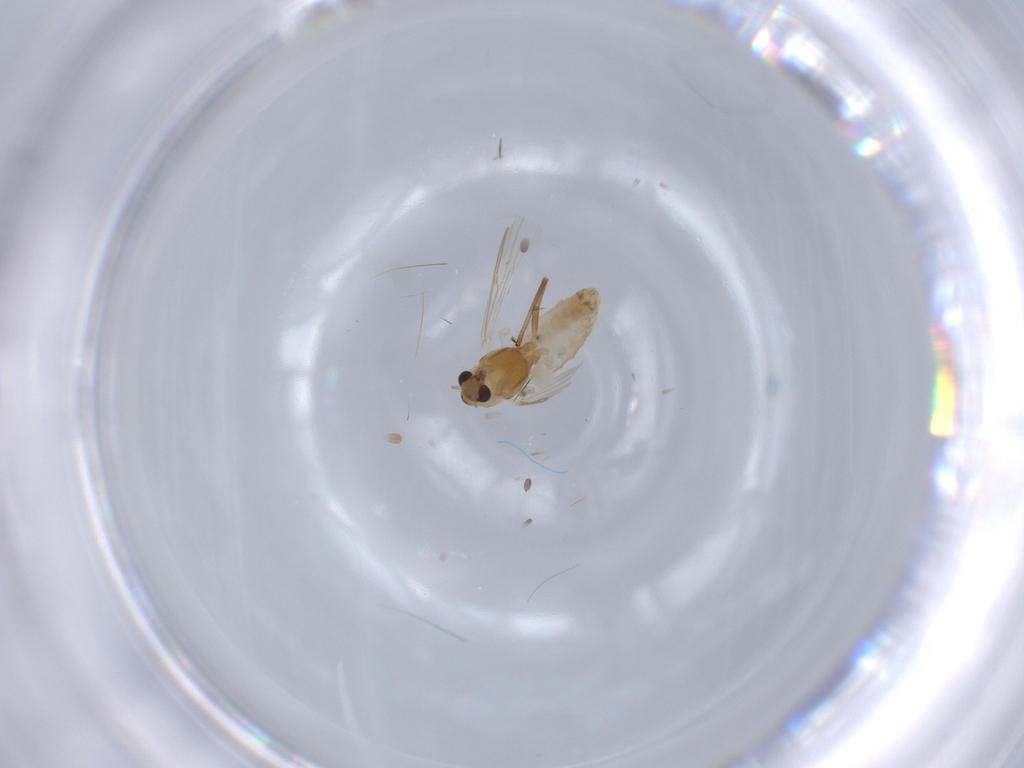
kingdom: Animalia
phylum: Arthropoda
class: Insecta
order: Diptera
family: Chironomidae
